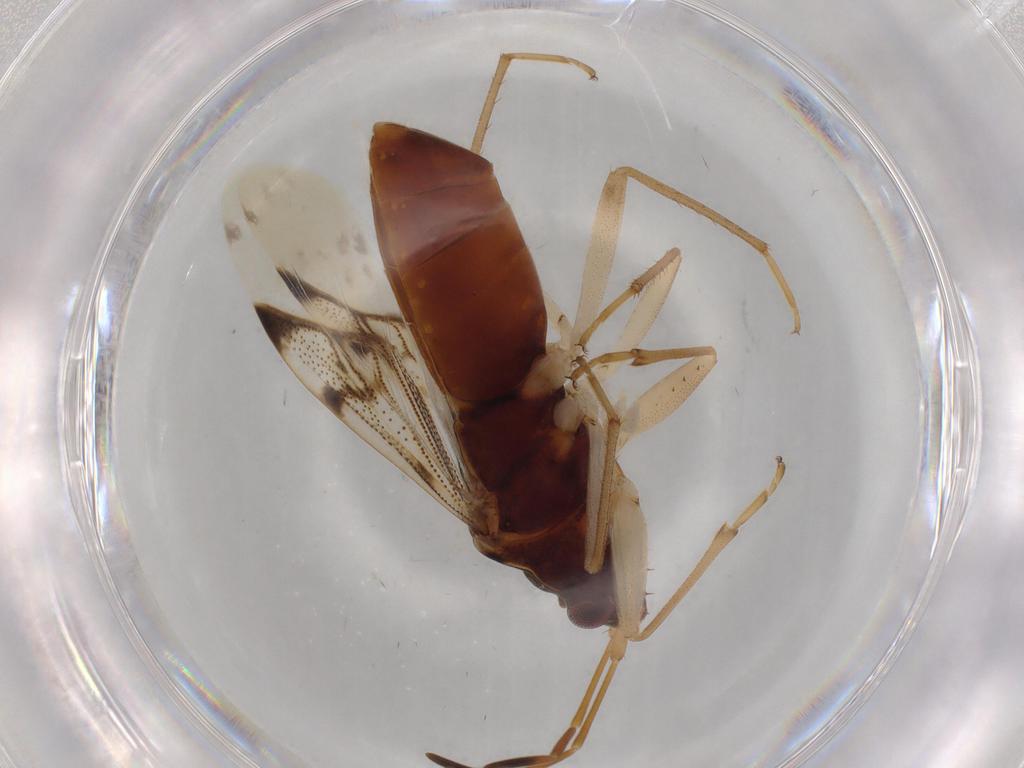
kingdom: Animalia
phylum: Arthropoda
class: Insecta
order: Hemiptera
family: Rhyparochromidae
